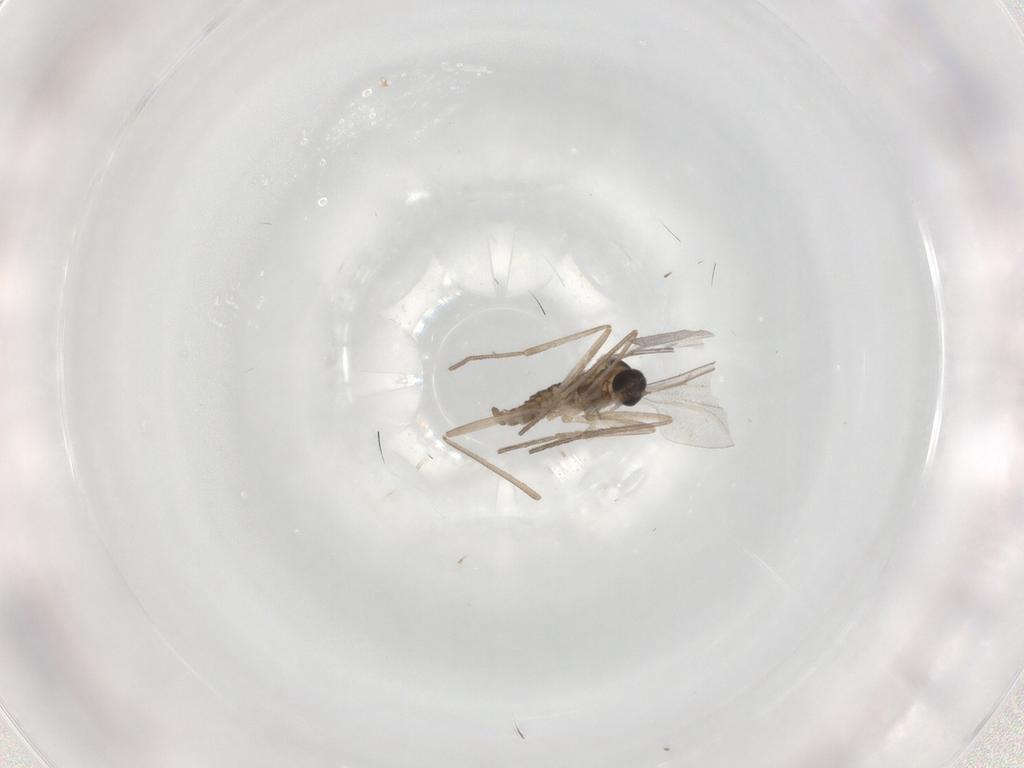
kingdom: Animalia
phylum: Arthropoda
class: Insecta
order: Diptera
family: Cecidomyiidae
